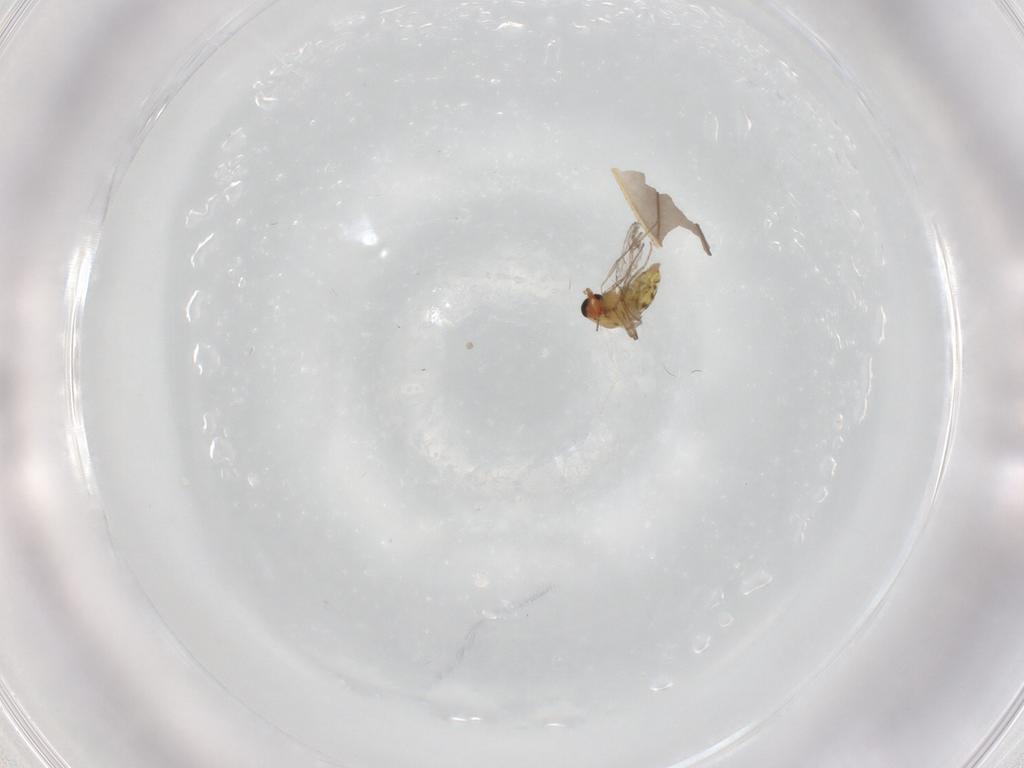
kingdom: Animalia
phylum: Arthropoda
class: Insecta
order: Diptera
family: Chironomidae
